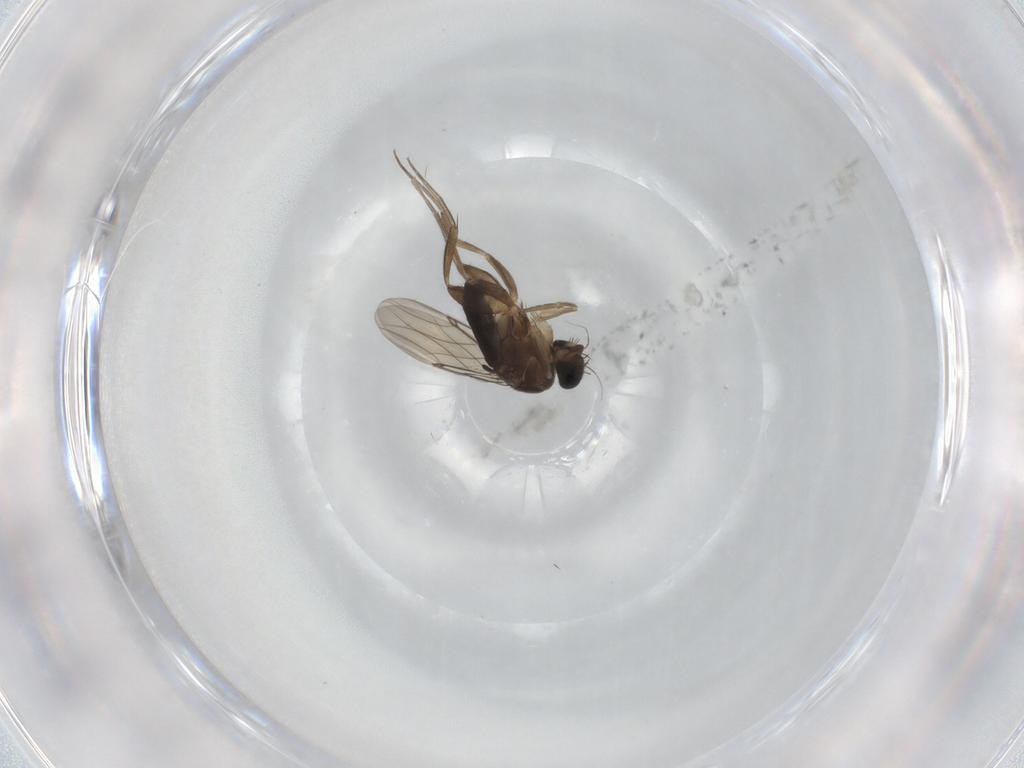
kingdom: Animalia
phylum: Arthropoda
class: Insecta
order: Diptera
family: Phoridae
